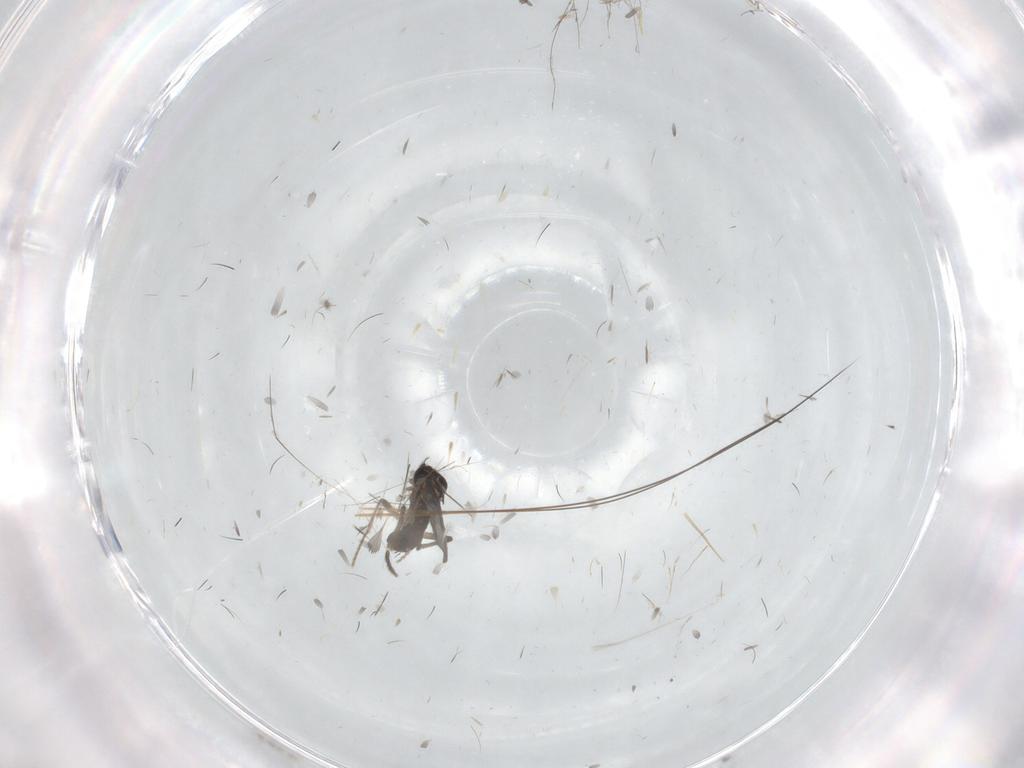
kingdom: Animalia
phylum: Arthropoda
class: Insecta
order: Diptera
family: Phoridae
